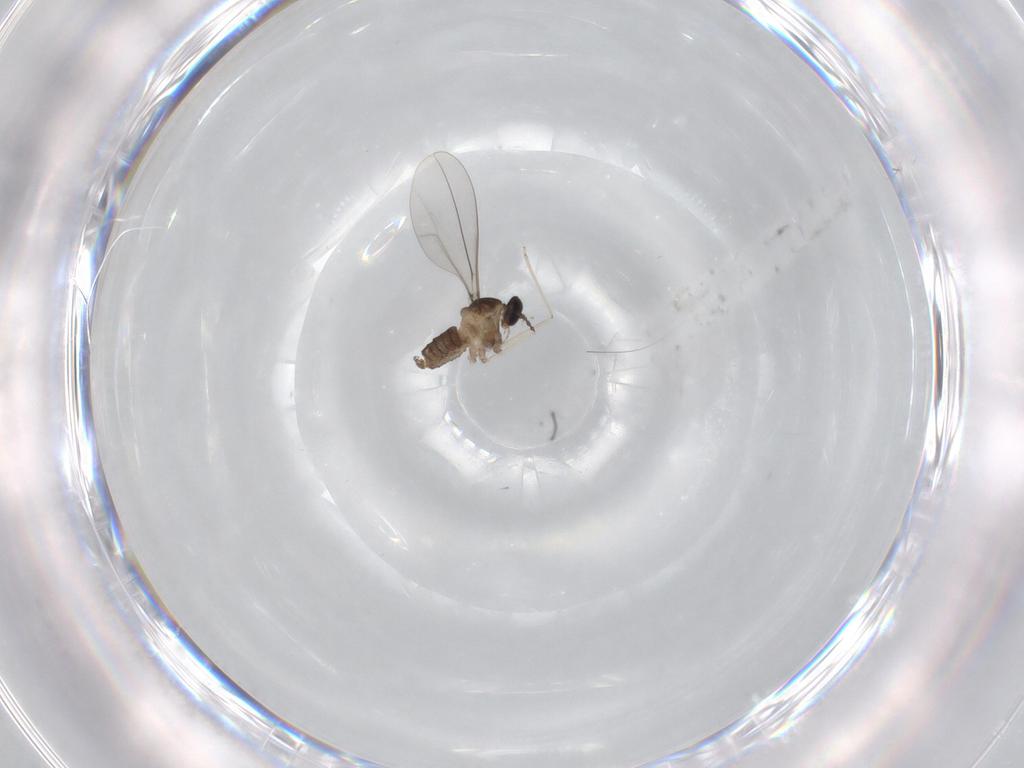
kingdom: Animalia
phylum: Arthropoda
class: Insecta
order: Diptera
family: Cecidomyiidae
